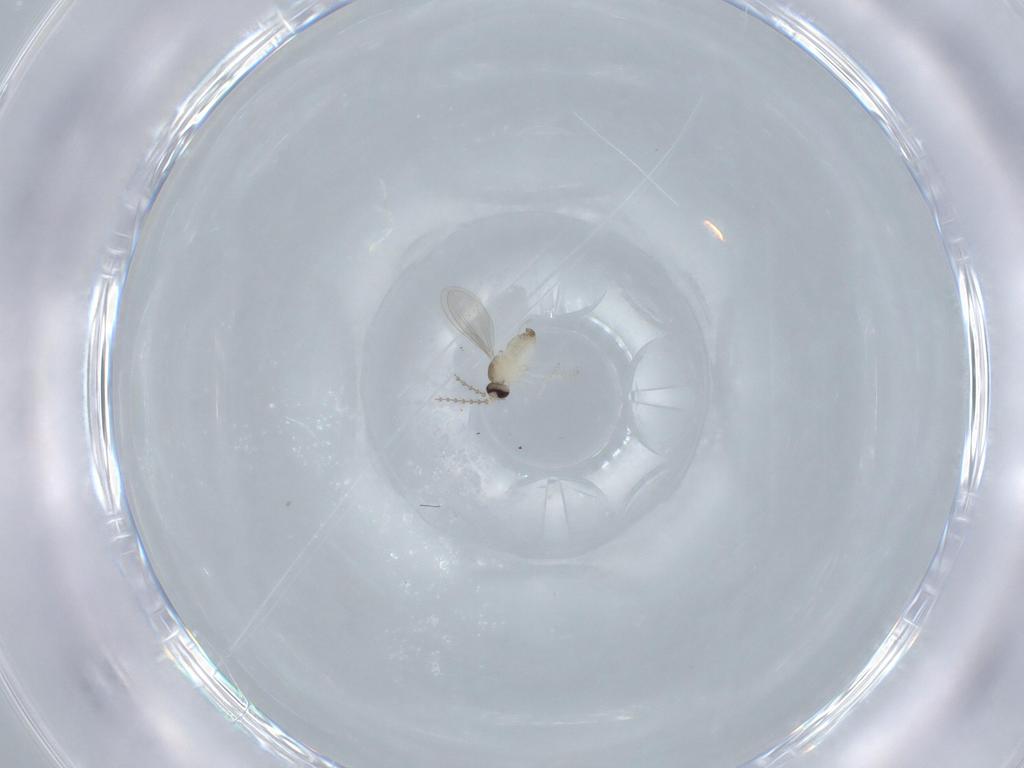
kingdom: Animalia
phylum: Arthropoda
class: Insecta
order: Diptera
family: Cecidomyiidae
